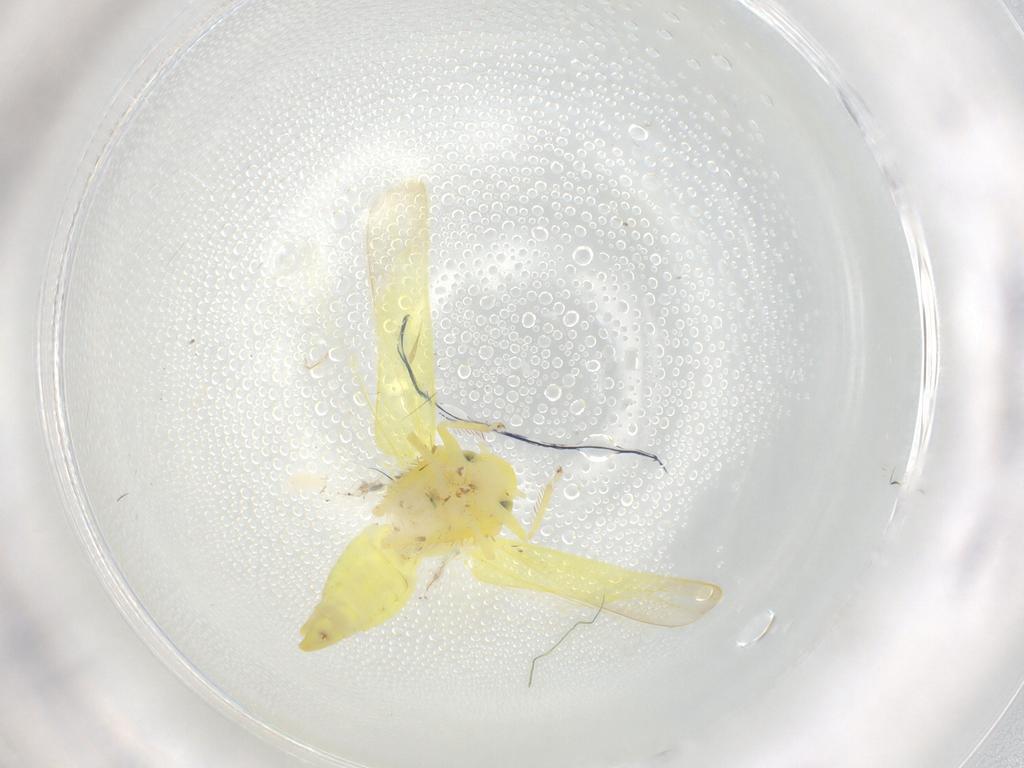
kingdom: Animalia
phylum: Arthropoda
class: Insecta
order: Hemiptera
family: Cicadellidae
